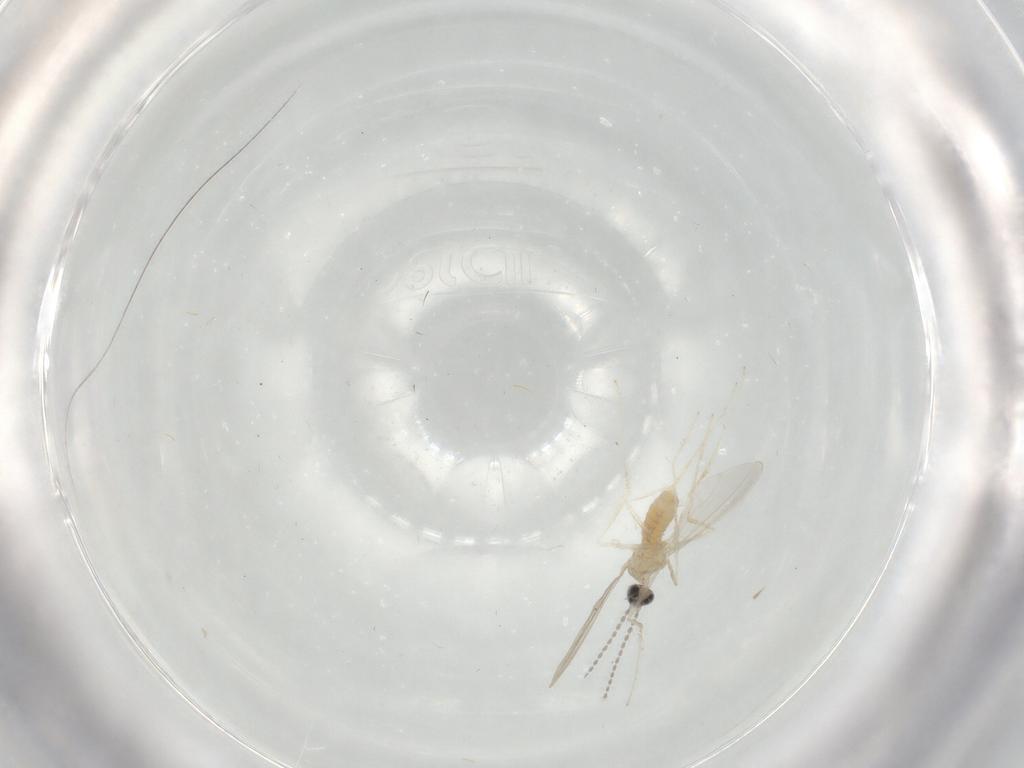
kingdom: Animalia
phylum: Arthropoda
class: Insecta
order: Diptera
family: Cecidomyiidae
